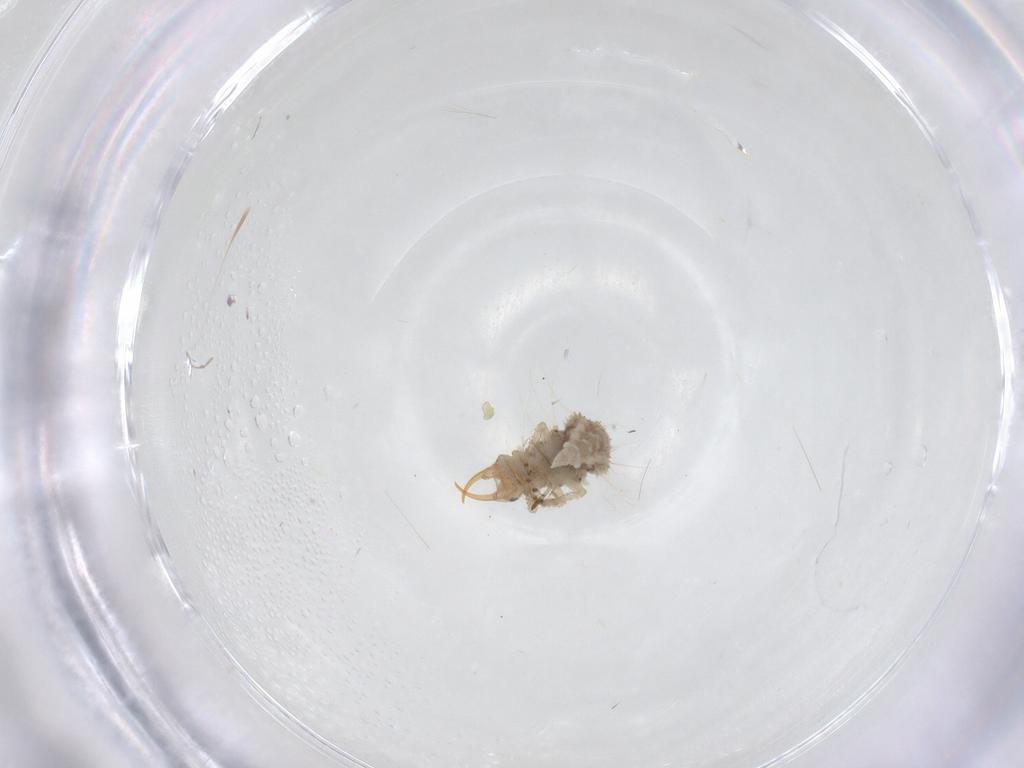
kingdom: Animalia
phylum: Arthropoda
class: Insecta
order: Neuroptera
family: Chrysopidae
